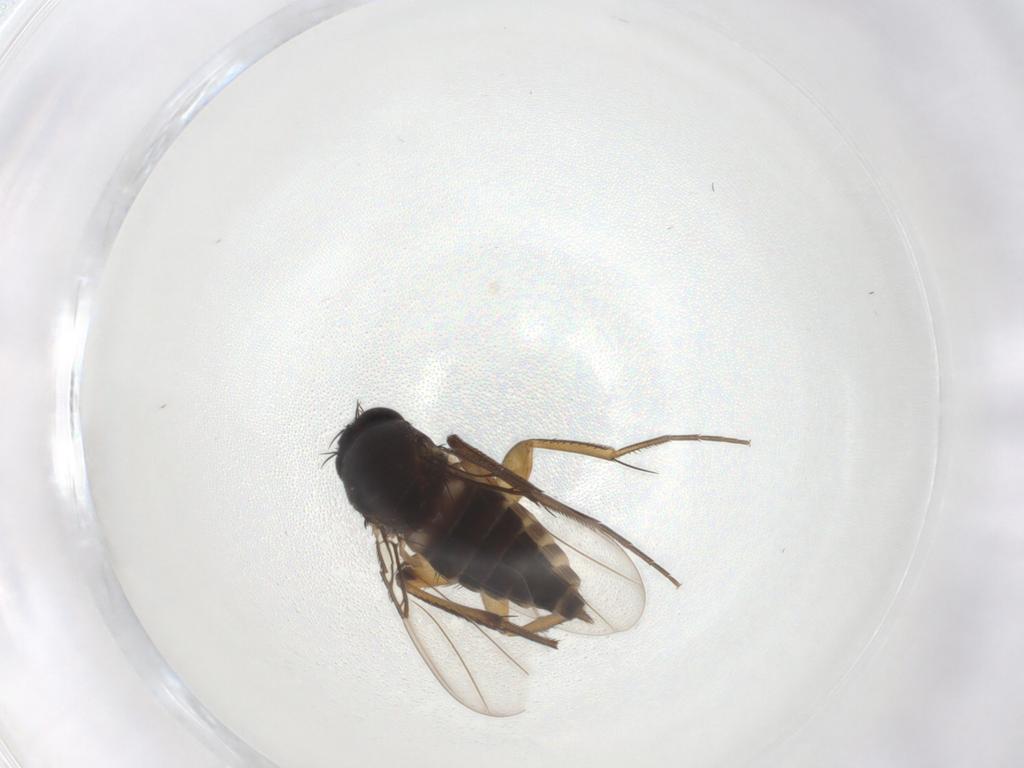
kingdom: Animalia
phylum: Arthropoda
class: Insecta
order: Diptera
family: Phoridae
